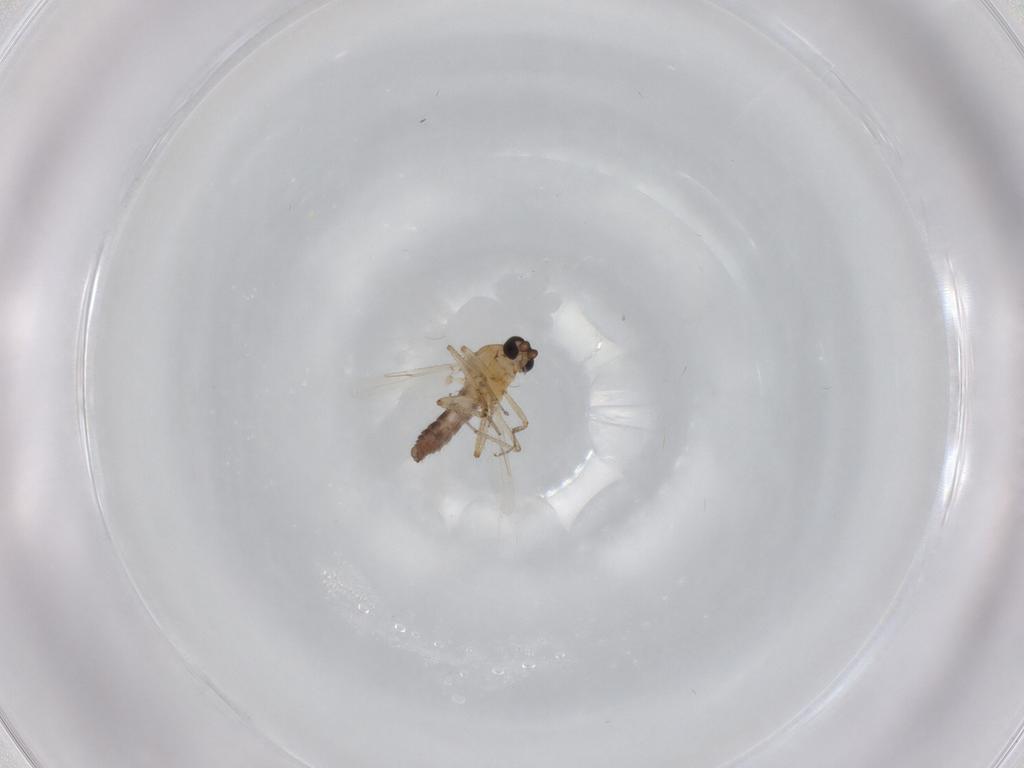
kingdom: Animalia
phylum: Arthropoda
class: Insecta
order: Diptera
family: Ceratopogonidae
